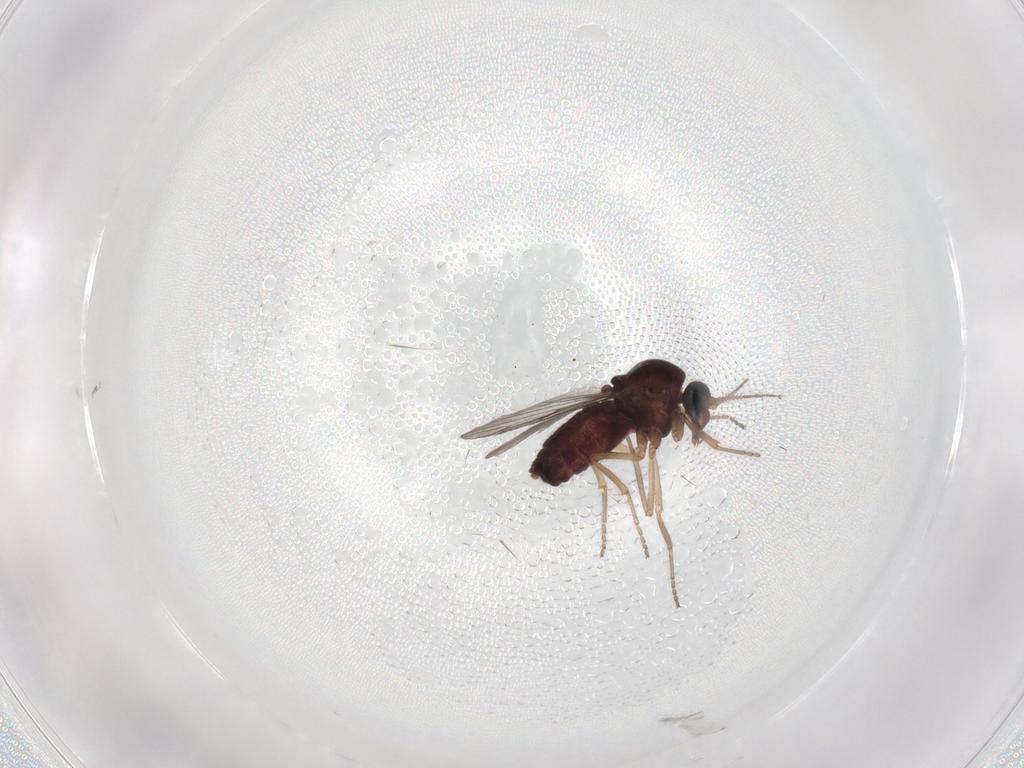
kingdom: Animalia
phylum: Arthropoda
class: Insecta
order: Diptera
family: Ceratopogonidae
